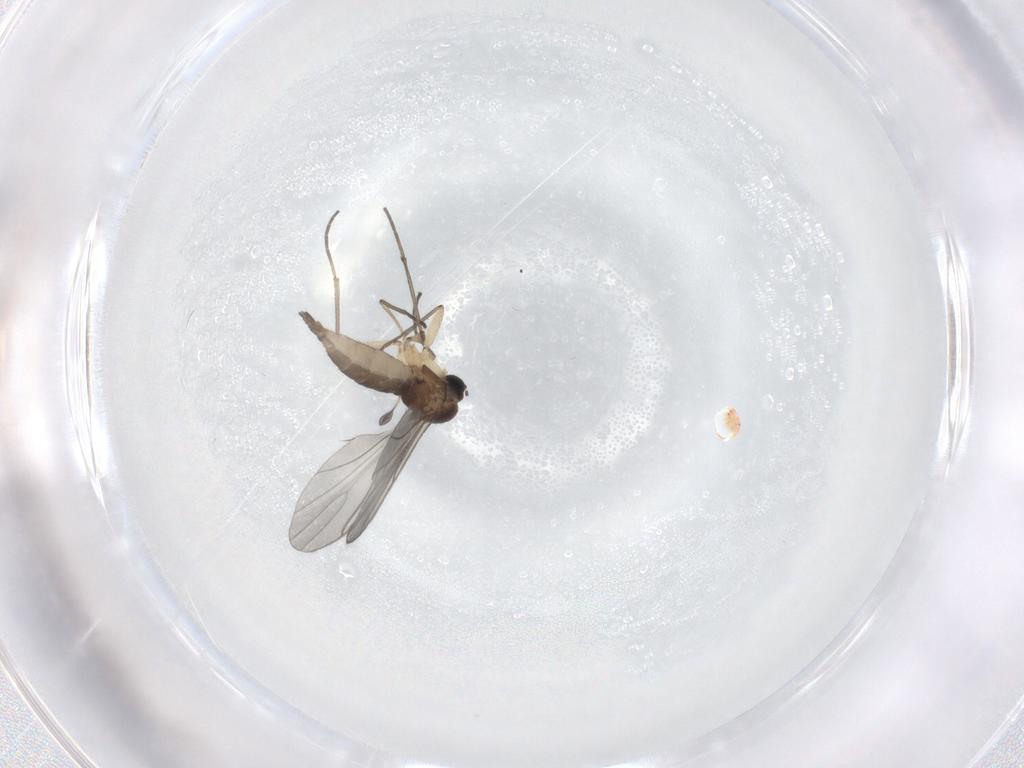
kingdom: Animalia
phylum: Arthropoda
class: Insecta
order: Diptera
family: Sciaridae
